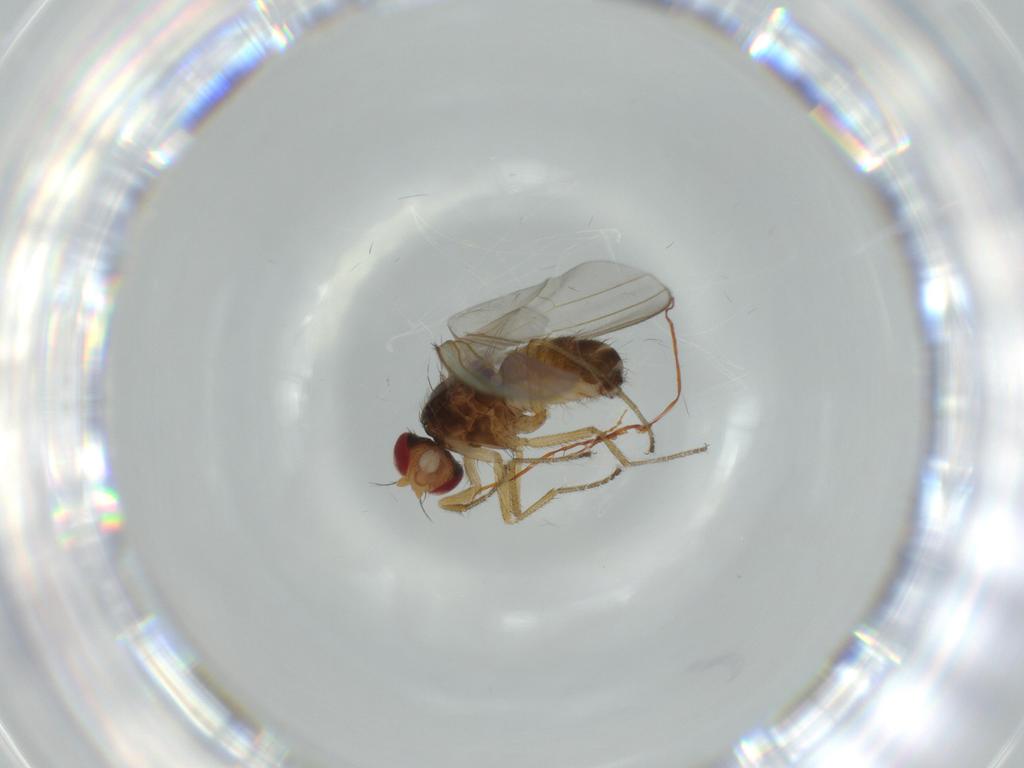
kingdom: Animalia
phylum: Arthropoda
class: Insecta
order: Diptera
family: Drosophilidae
